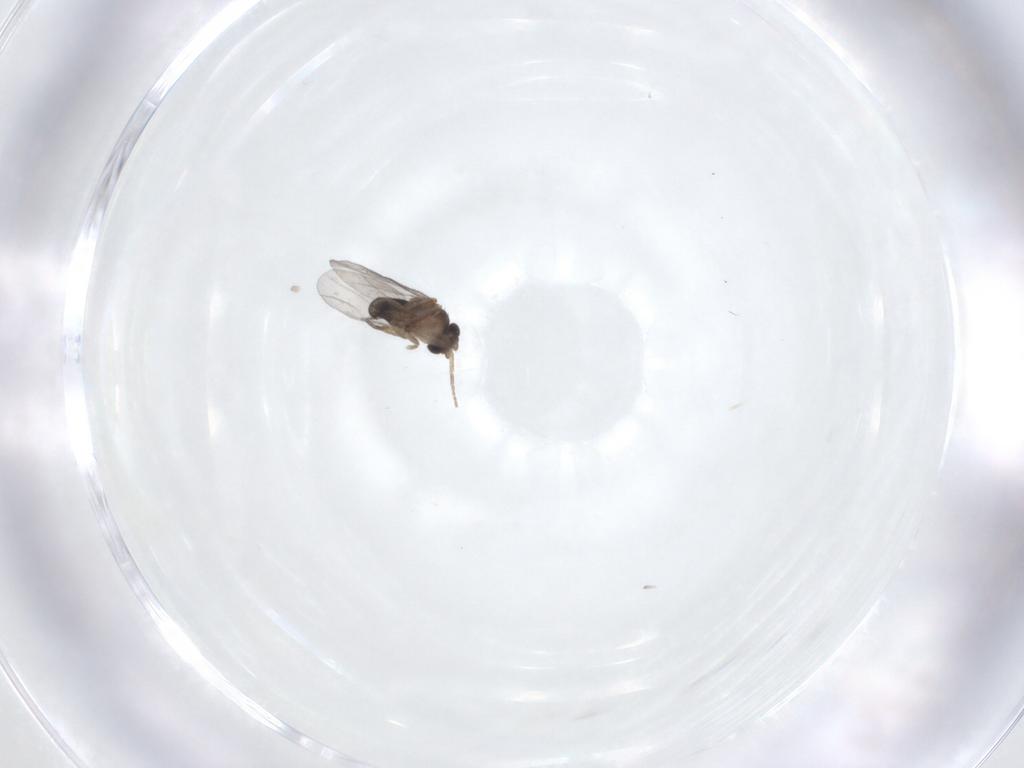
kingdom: Animalia
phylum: Arthropoda
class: Insecta
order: Diptera
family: Phoridae
